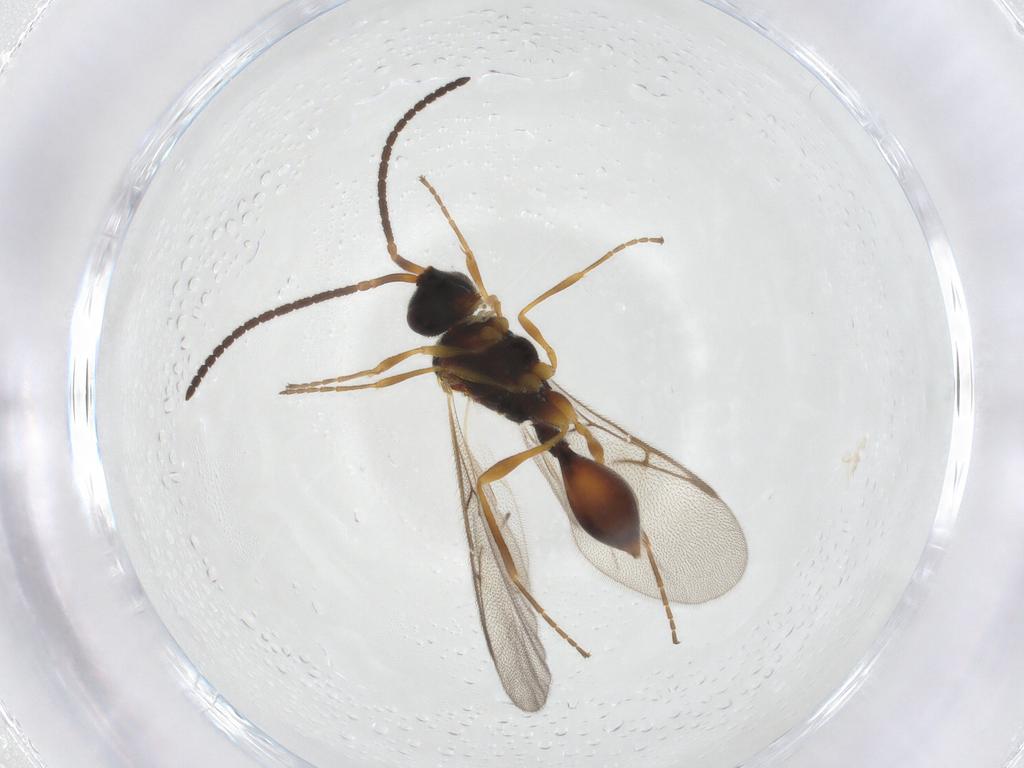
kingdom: Animalia
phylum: Arthropoda
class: Insecta
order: Hymenoptera
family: Diapriidae
